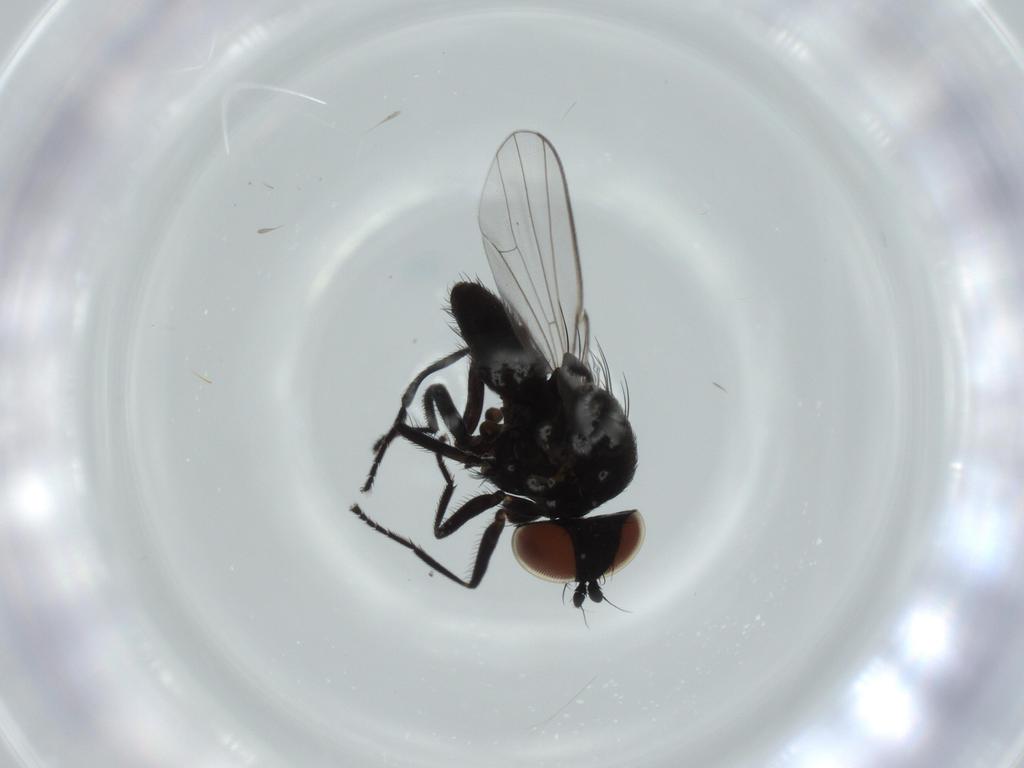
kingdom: Animalia
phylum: Arthropoda
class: Insecta
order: Diptera
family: Milichiidae
